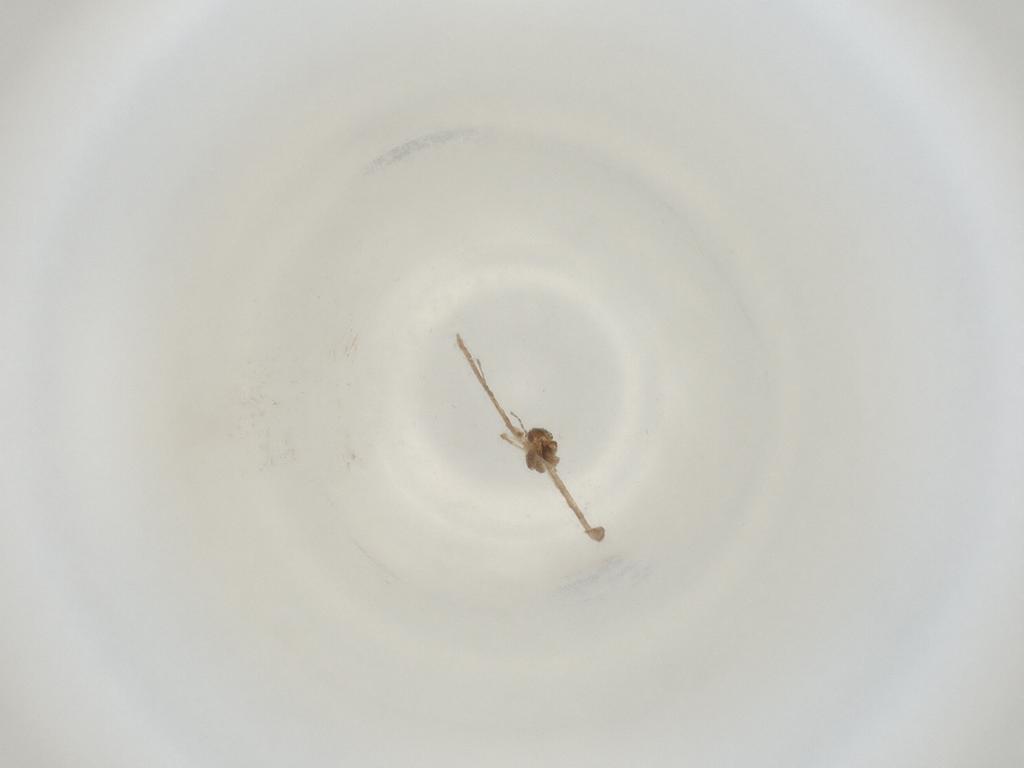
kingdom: Animalia
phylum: Arthropoda
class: Insecta
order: Diptera
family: Cecidomyiidae
